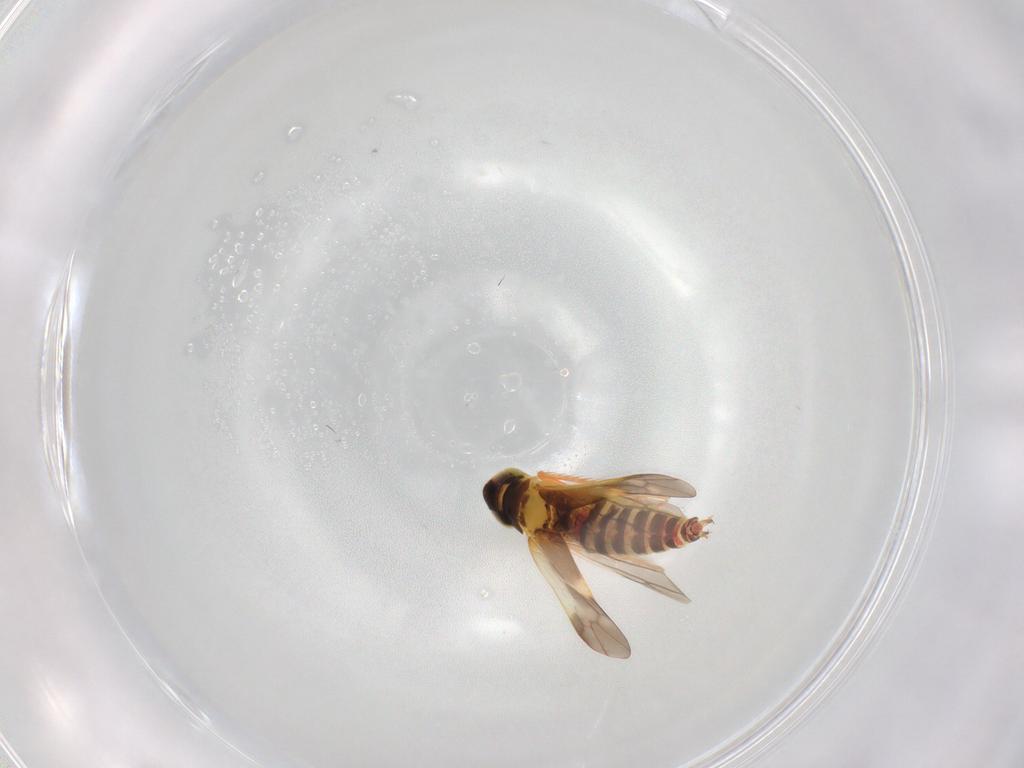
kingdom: Animalia
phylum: Arthropoda
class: Insecta
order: Hemiptera
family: Cicadellidae
